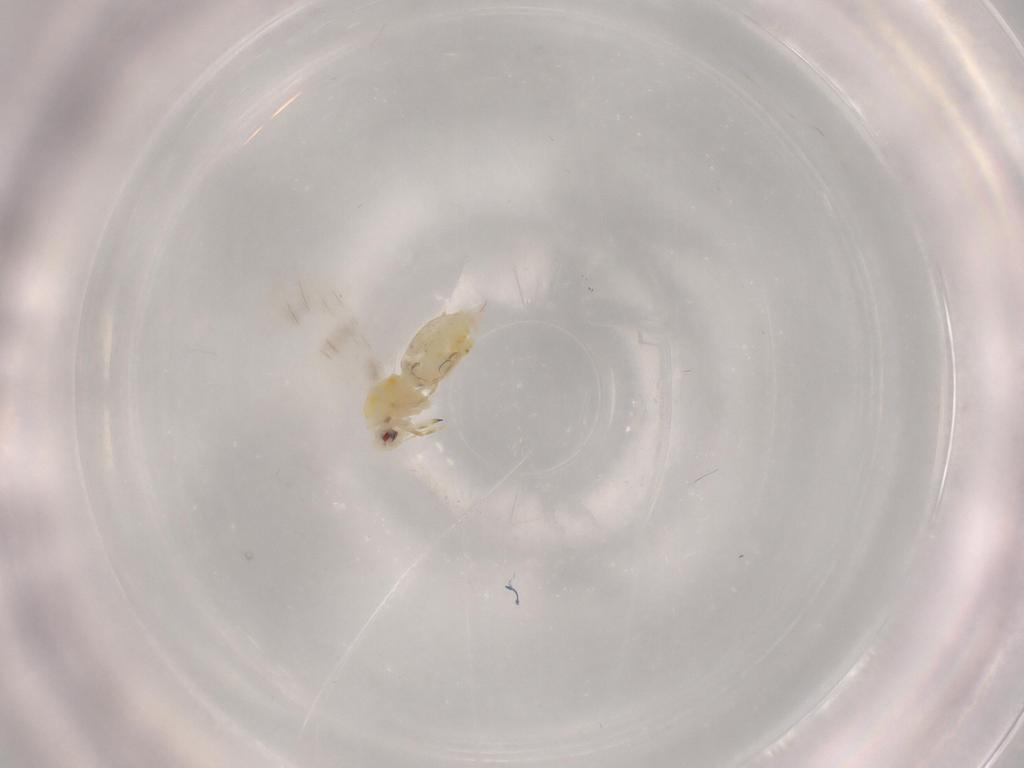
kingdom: Animalia
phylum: Arthropoda
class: Insecta
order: Hemiptera
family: Aleyrodidae
